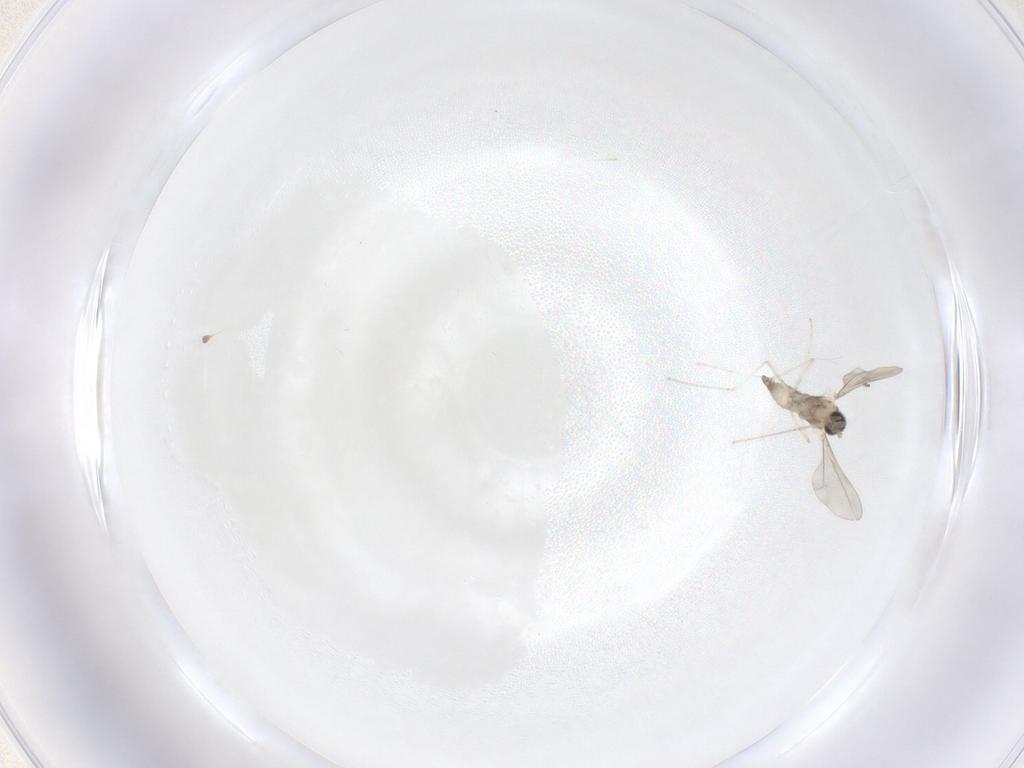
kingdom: Animalia
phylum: Arthropoda
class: Insecta
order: Diptera
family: Cecidomyiidae
